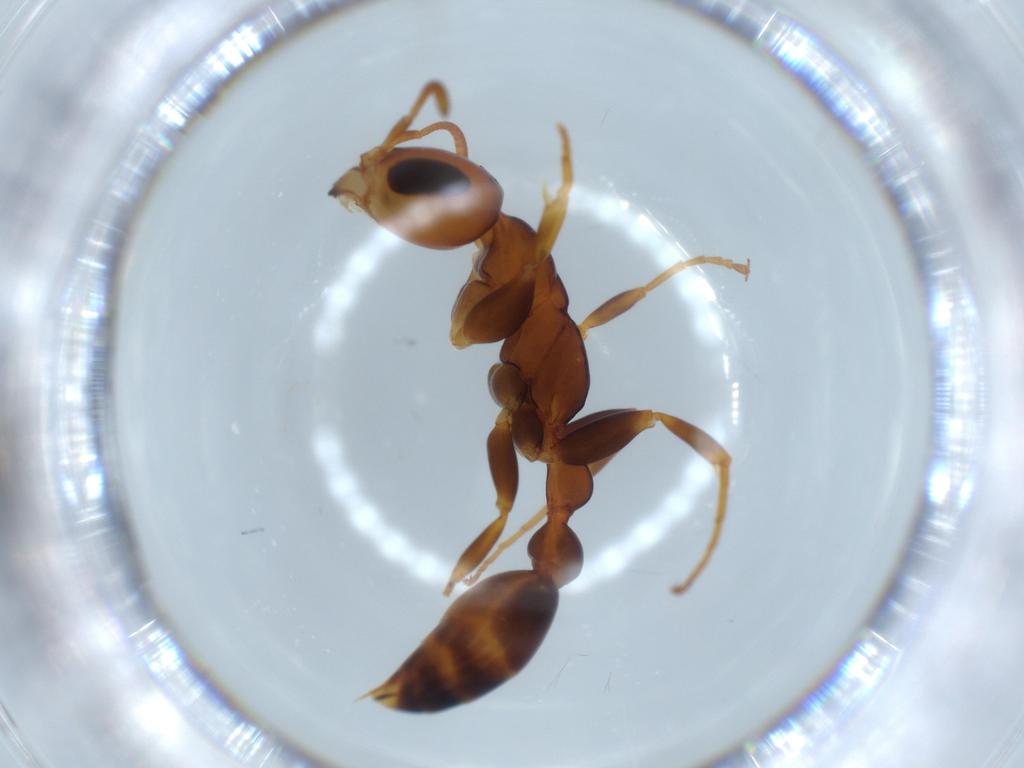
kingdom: Animalia
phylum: Arthropoda
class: Insecta
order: Hymenoptera
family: Formicidae
